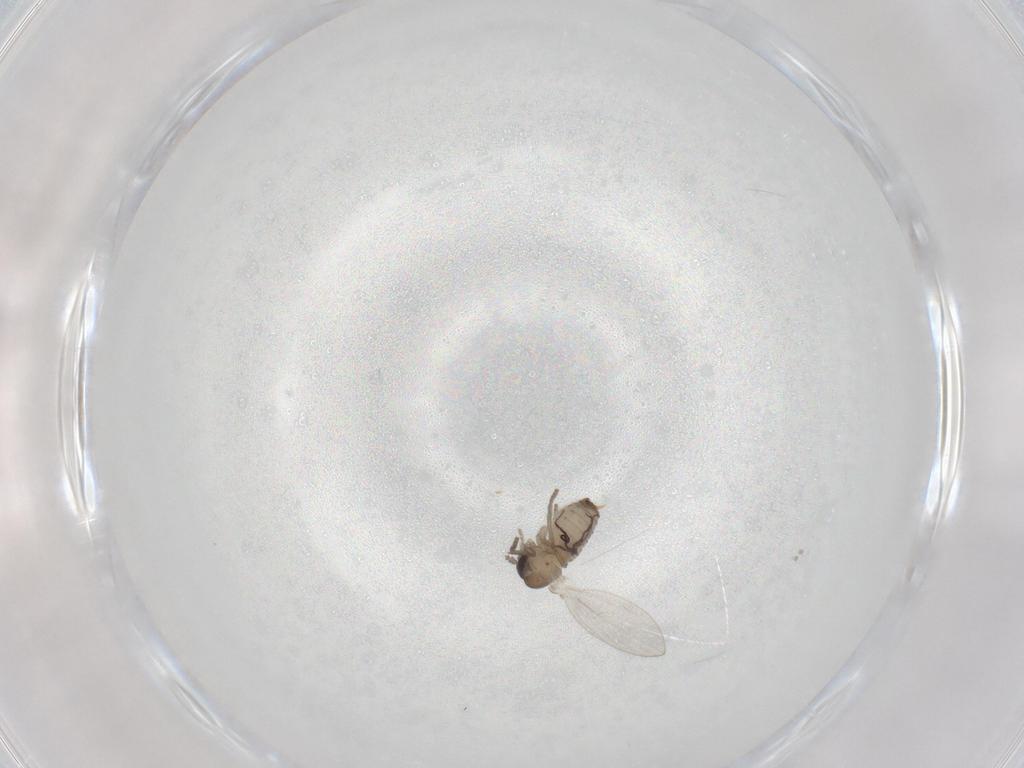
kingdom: Animalia
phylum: Arthropoda
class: Insecta
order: Diptera
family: Psychodidae
